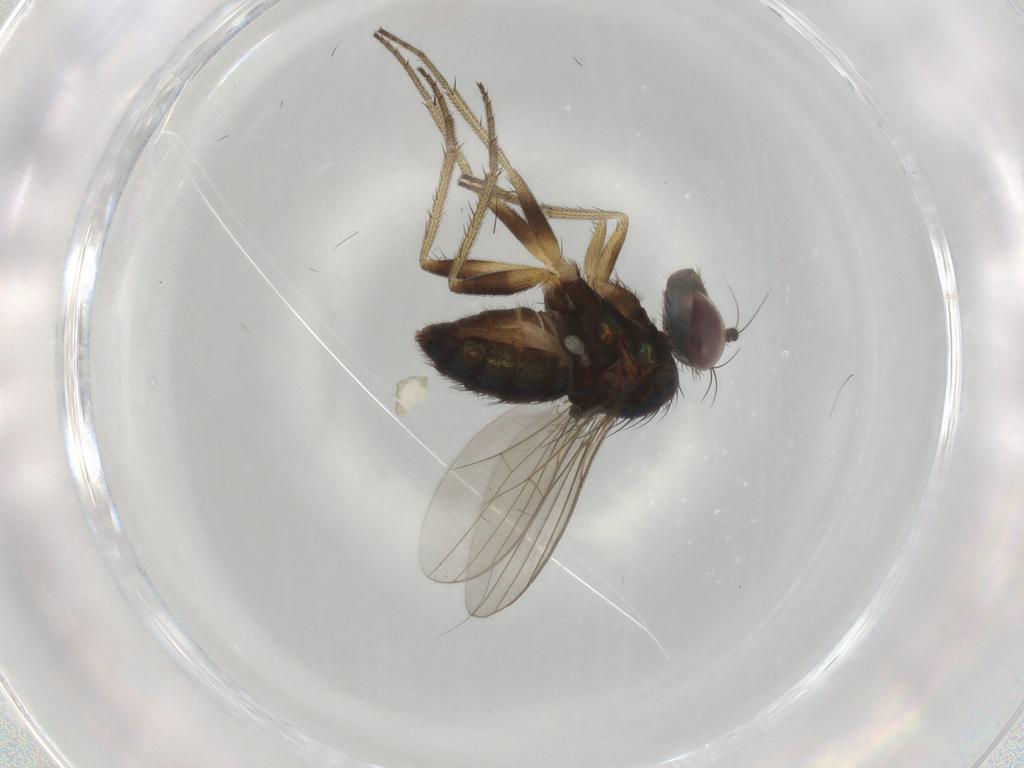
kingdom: Animalia
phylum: Arthropoda
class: Insecta
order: Diptera
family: Dolichopodidae
